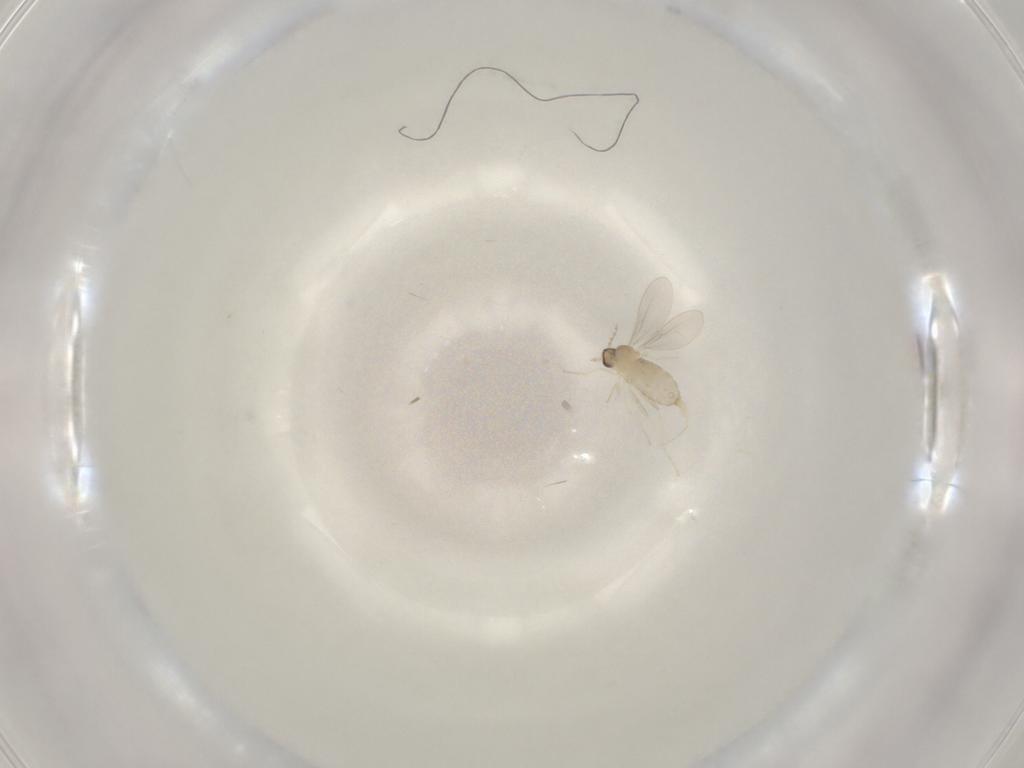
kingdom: Animalia
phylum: Arthropoda
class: Insecta
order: Diptera
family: Cecidomyiidae
